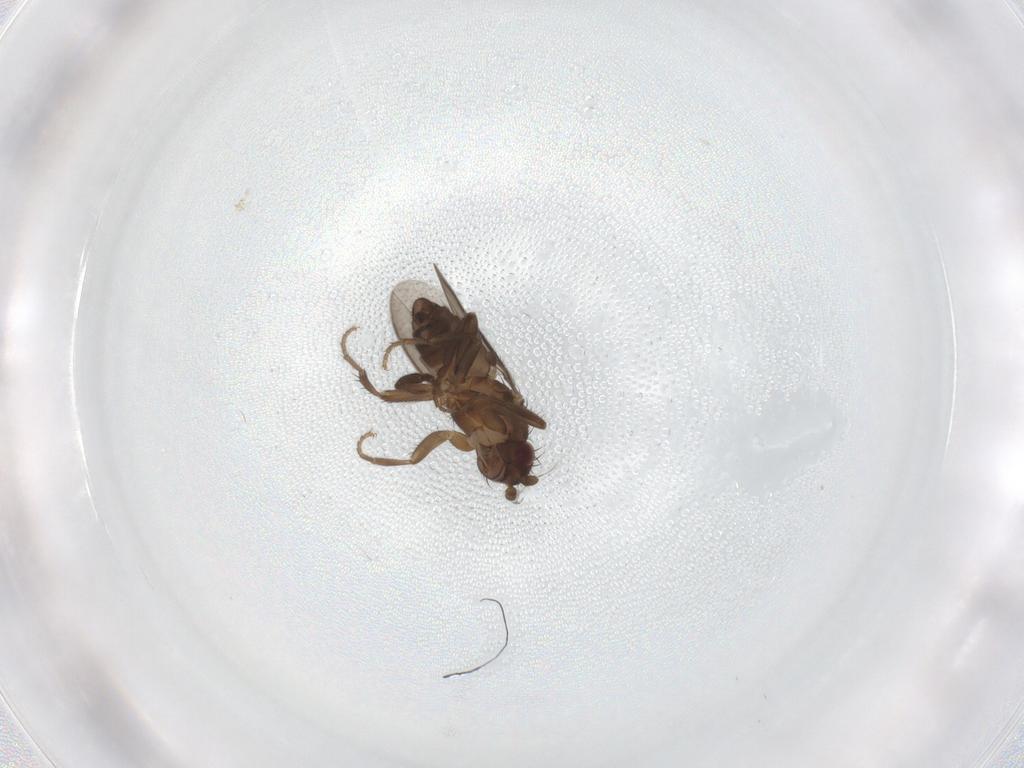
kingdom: Animalia
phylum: Arthropoda
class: Insecta
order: Diptera
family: Sphaeroceridae
